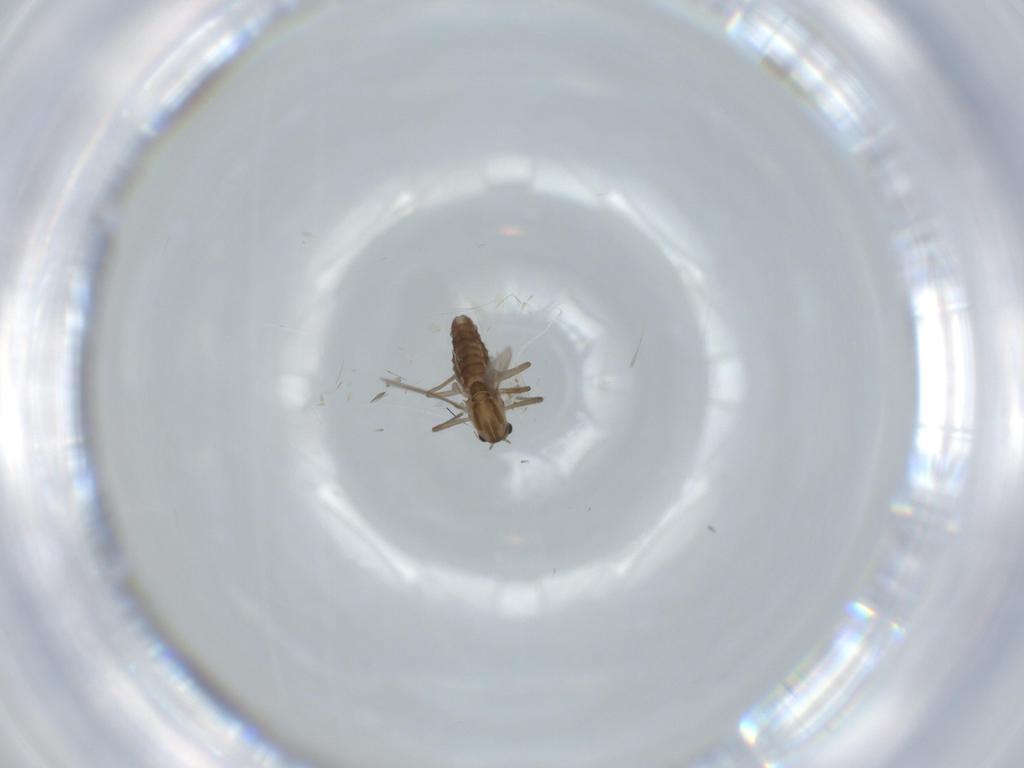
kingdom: Animalia
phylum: Arthropoda
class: Insecta
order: Diptera
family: Chironomidae
